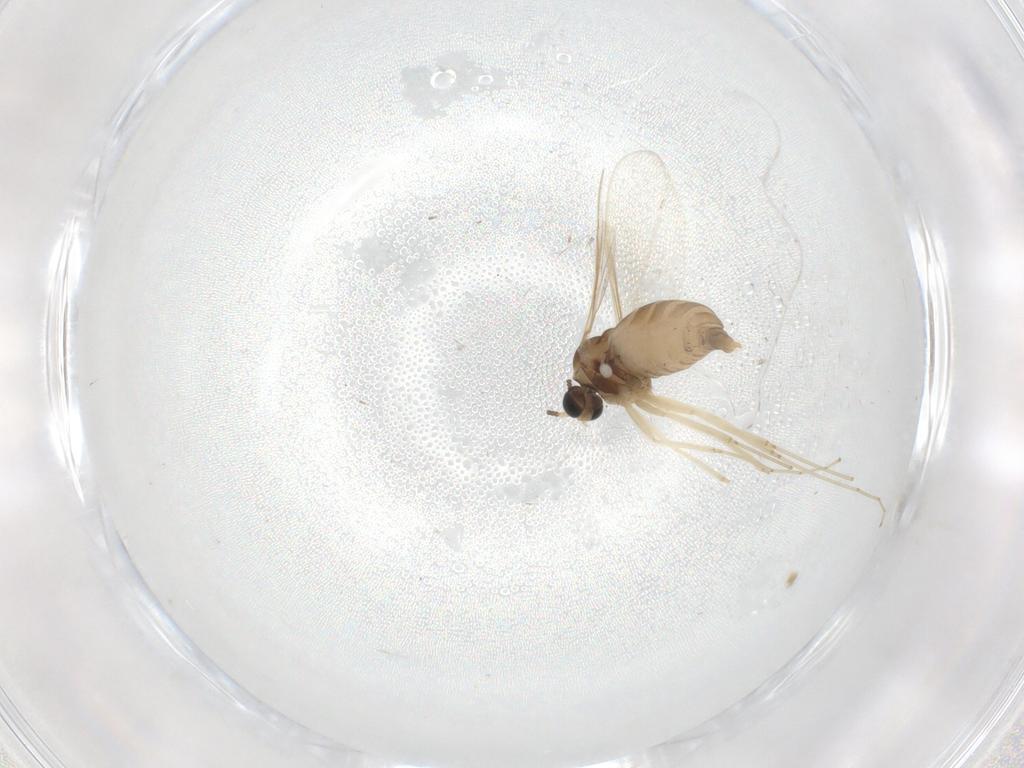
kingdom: Animalia
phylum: Arthropoda
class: Insecta
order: Diptera
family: Cecidomyiidae
